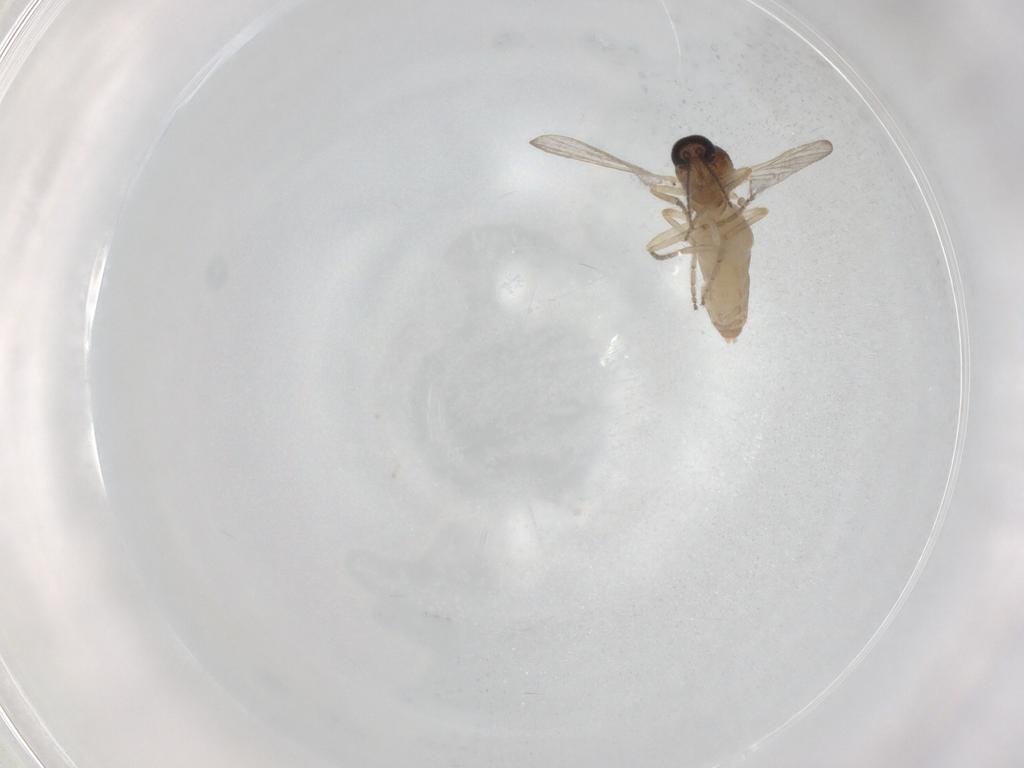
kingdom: Animalia
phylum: Arthropoda
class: Insecta
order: Diptera
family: Ceratopogonidae
